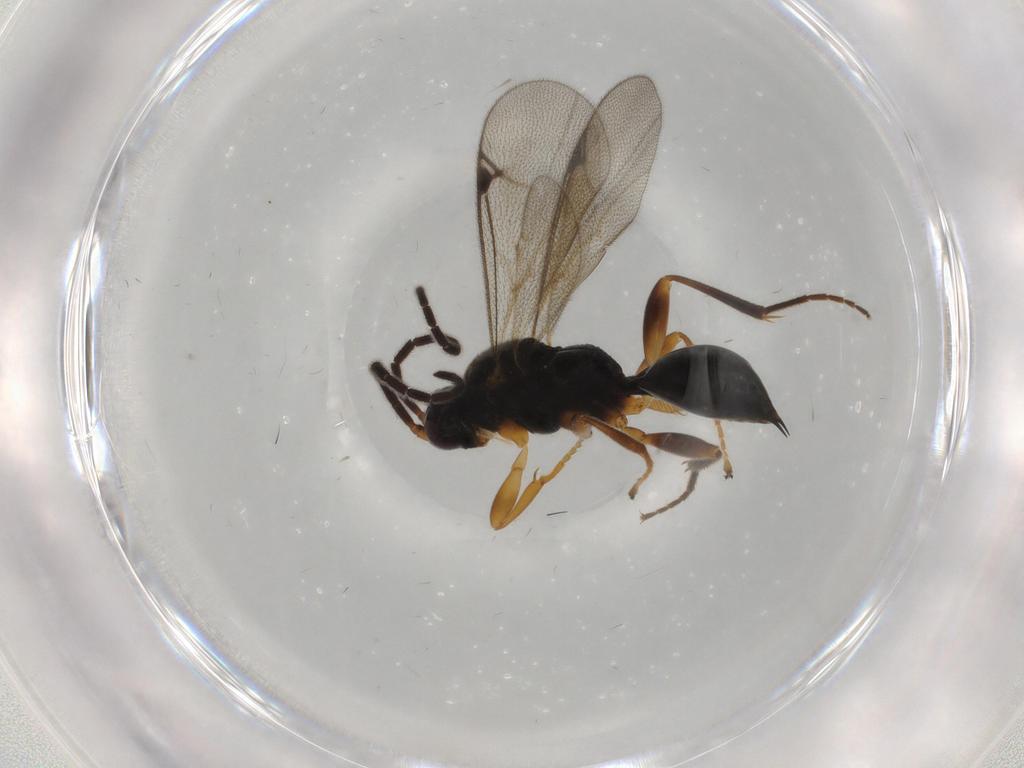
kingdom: Animalia
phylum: Arthropoda
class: Insecta
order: Hymenoptera
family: Proctotrupidae
